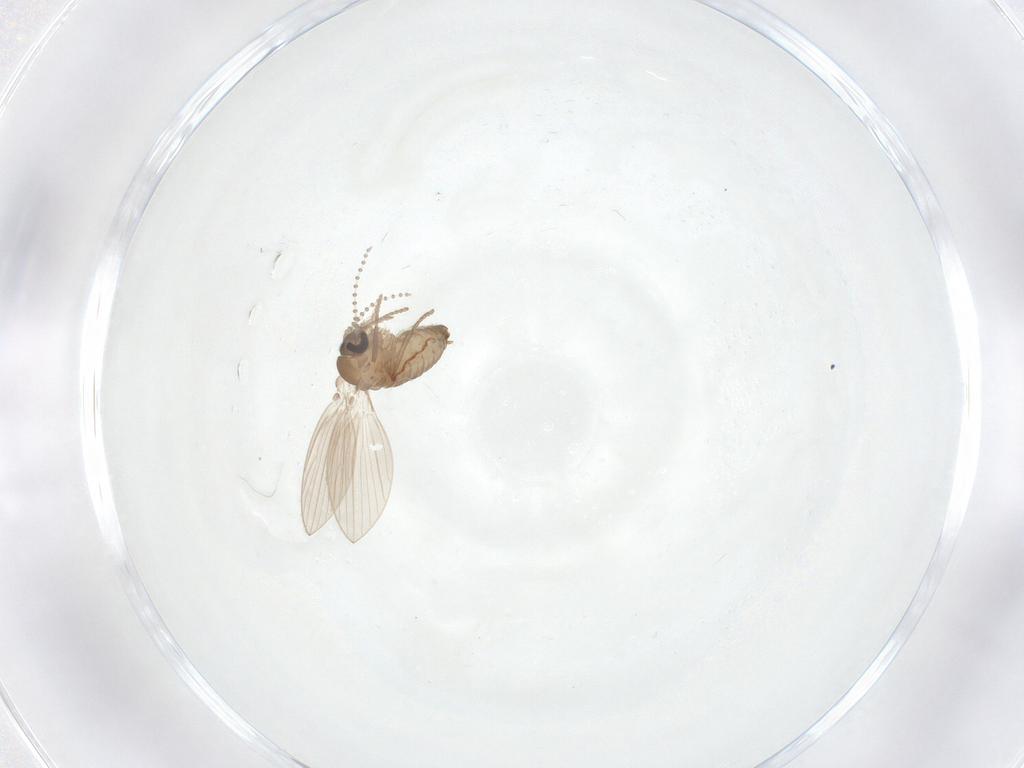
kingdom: Animalia
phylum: Arthropoda
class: Insecta
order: Diptera
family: Psychodidae
